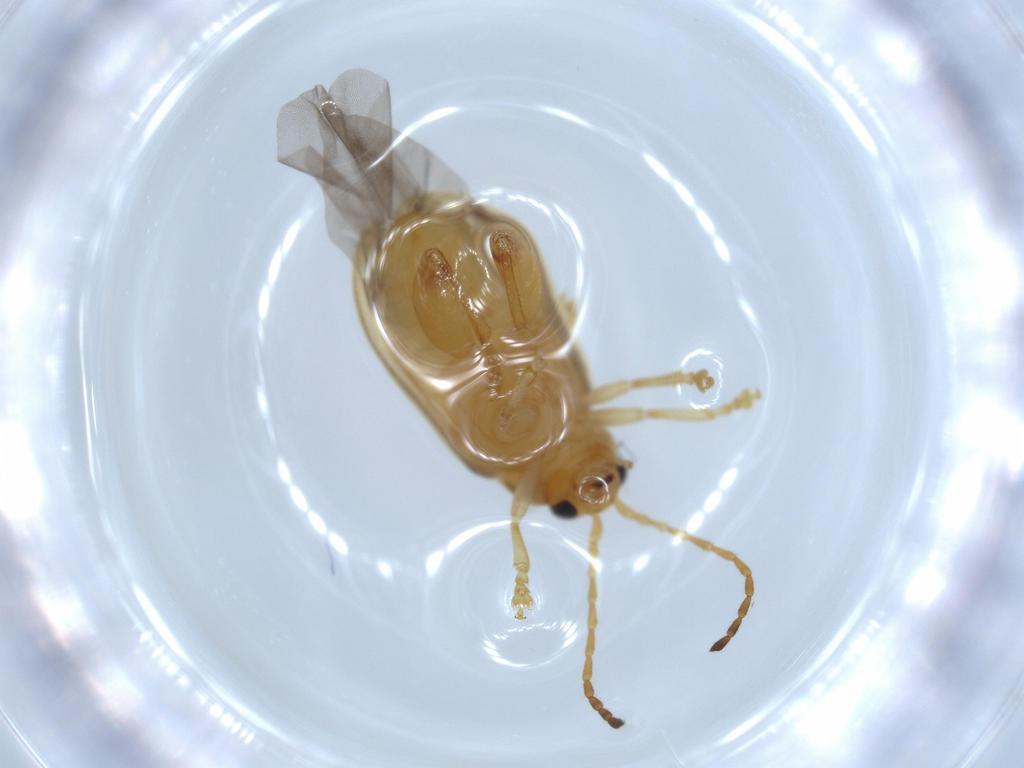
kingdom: Animalia
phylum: Arthropoda
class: Insecta
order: Coleoptera
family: Chrysomelidae
